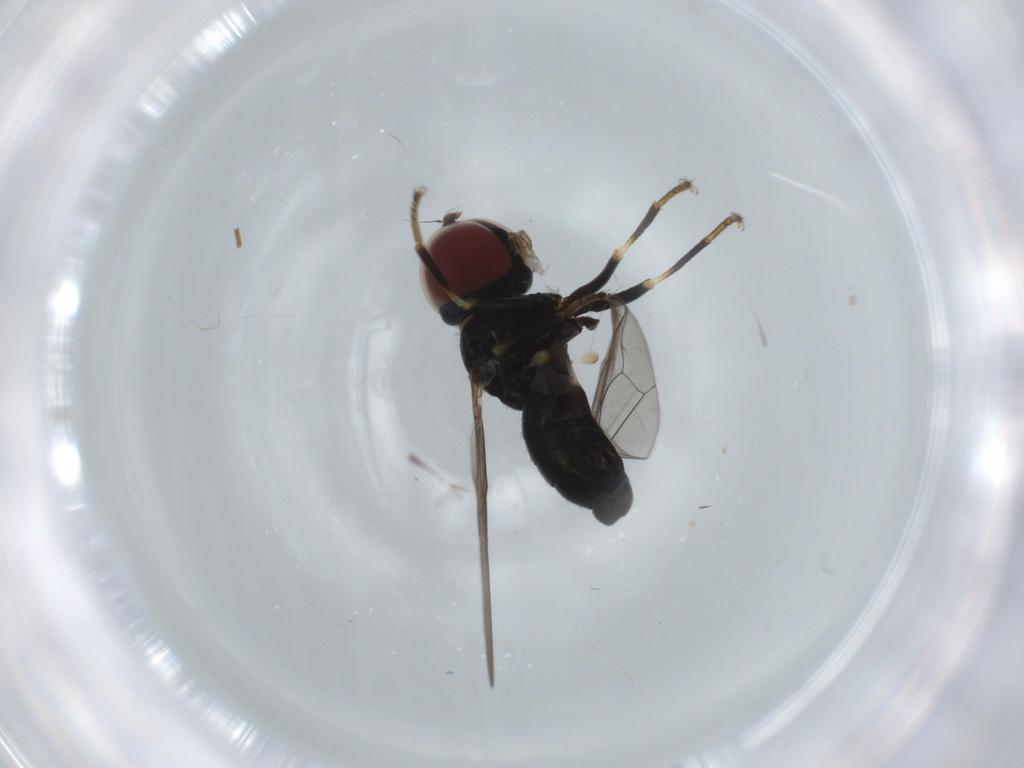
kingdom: Animalia
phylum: Arthropoda
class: Insecta
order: Diptera
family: Pipunculidae
